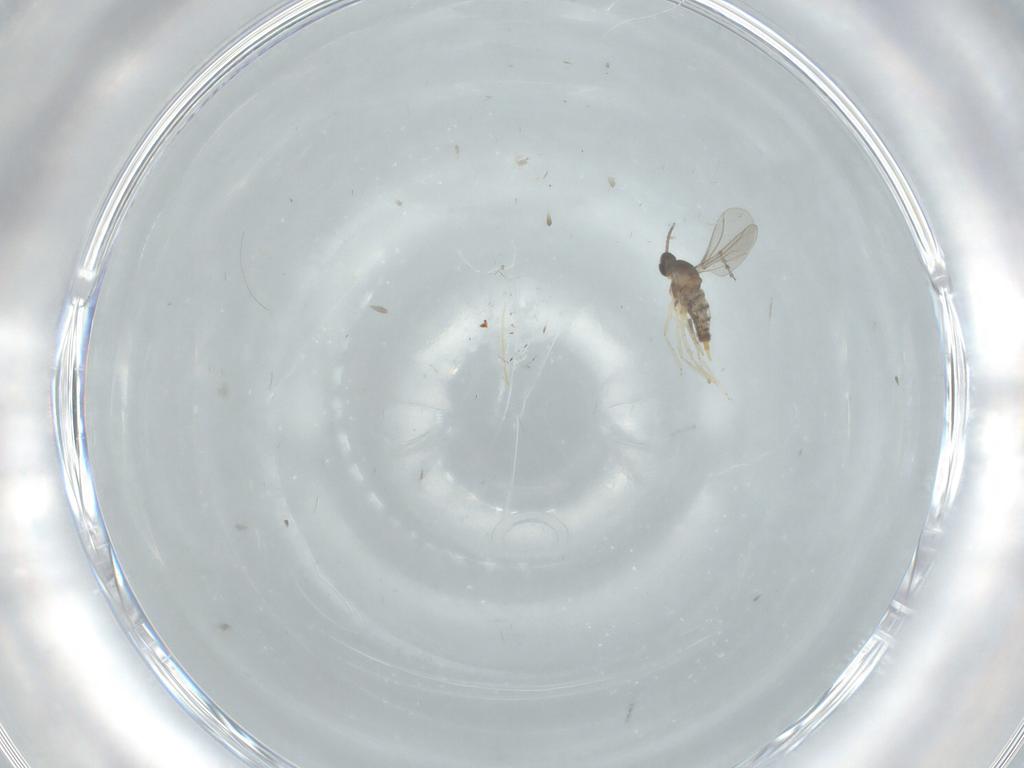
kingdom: Animalia
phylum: Arthropoda
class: Insecta
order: Diptera
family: Cecidomyiidae
